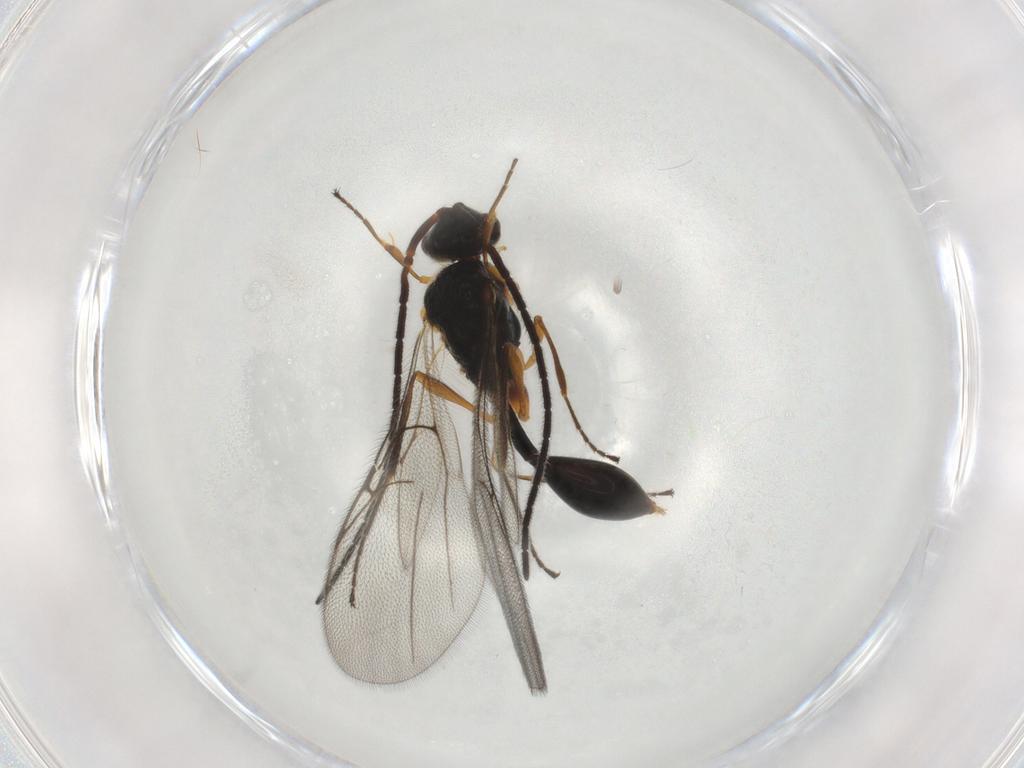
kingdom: Animalia
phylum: Arthropoda
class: Insecta
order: Hymenoptera
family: Diapriidae
